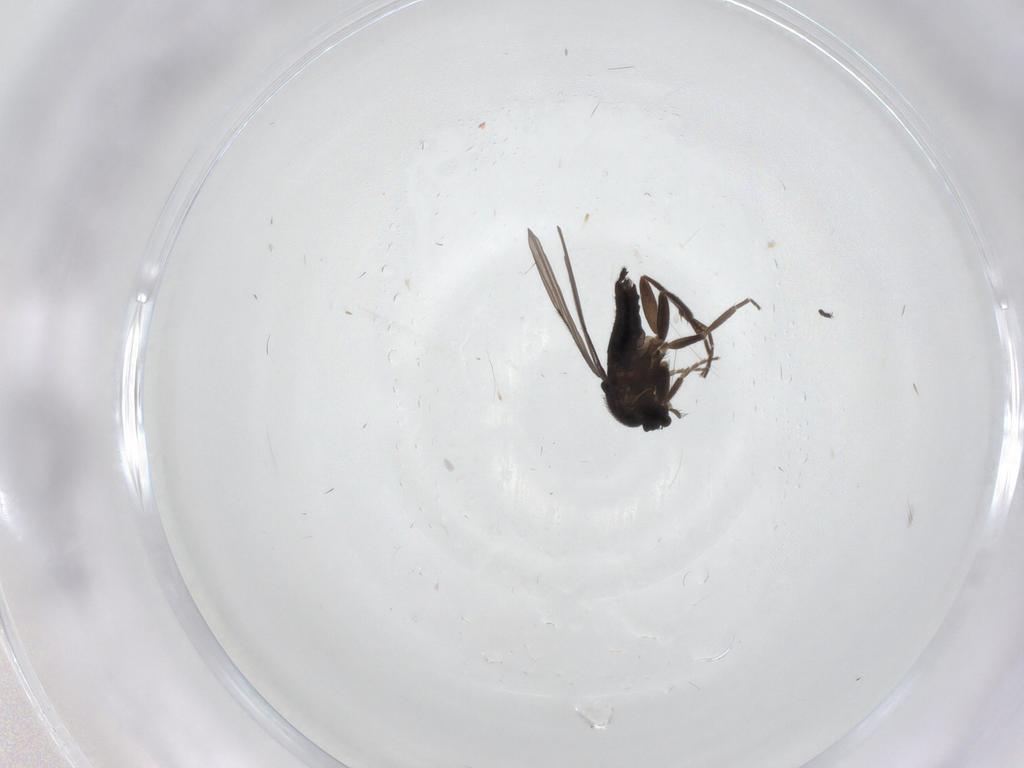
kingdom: Animalia
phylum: Arthropoda
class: Insecta
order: Diptera
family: Phoridae
